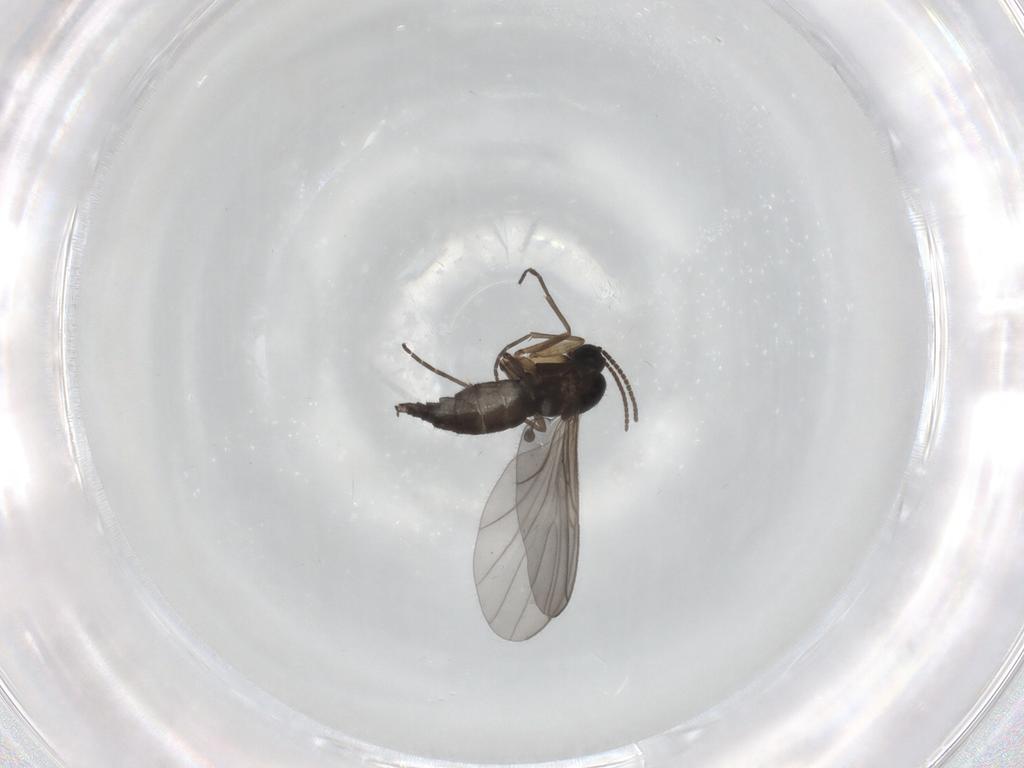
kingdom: Animalia
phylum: Arthropoda
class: Insecta
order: Diptera
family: Sciaridae
